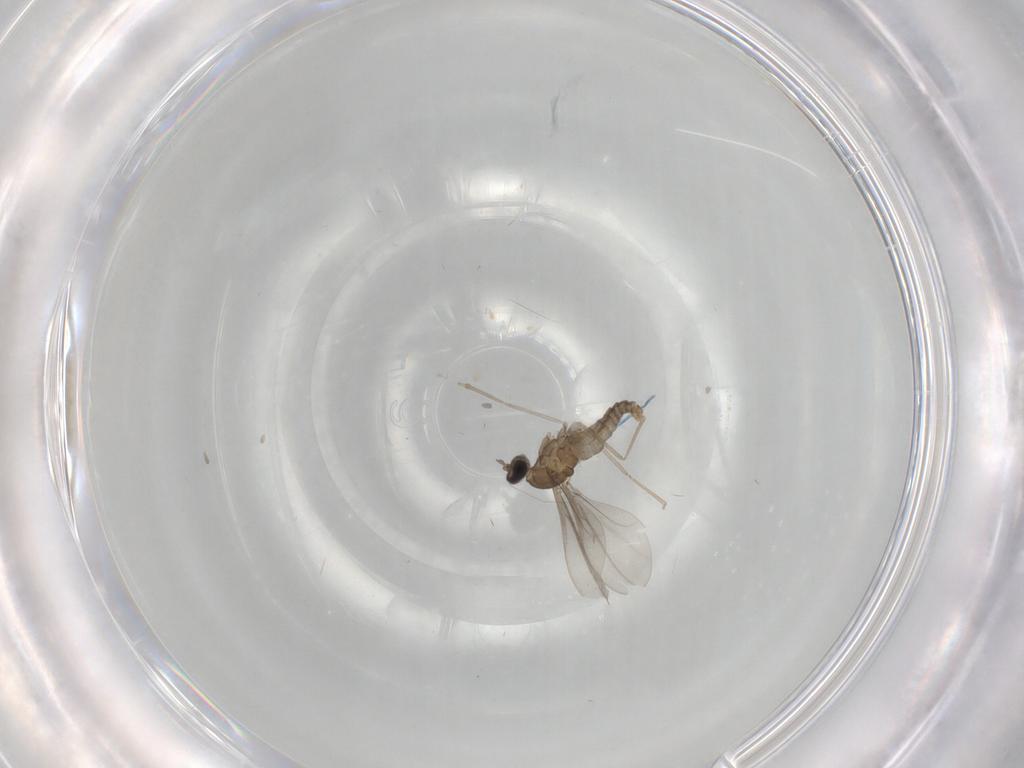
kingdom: Animalia
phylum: Arthropoda
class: Insecta
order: Diptera
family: Cecidomyiidae
